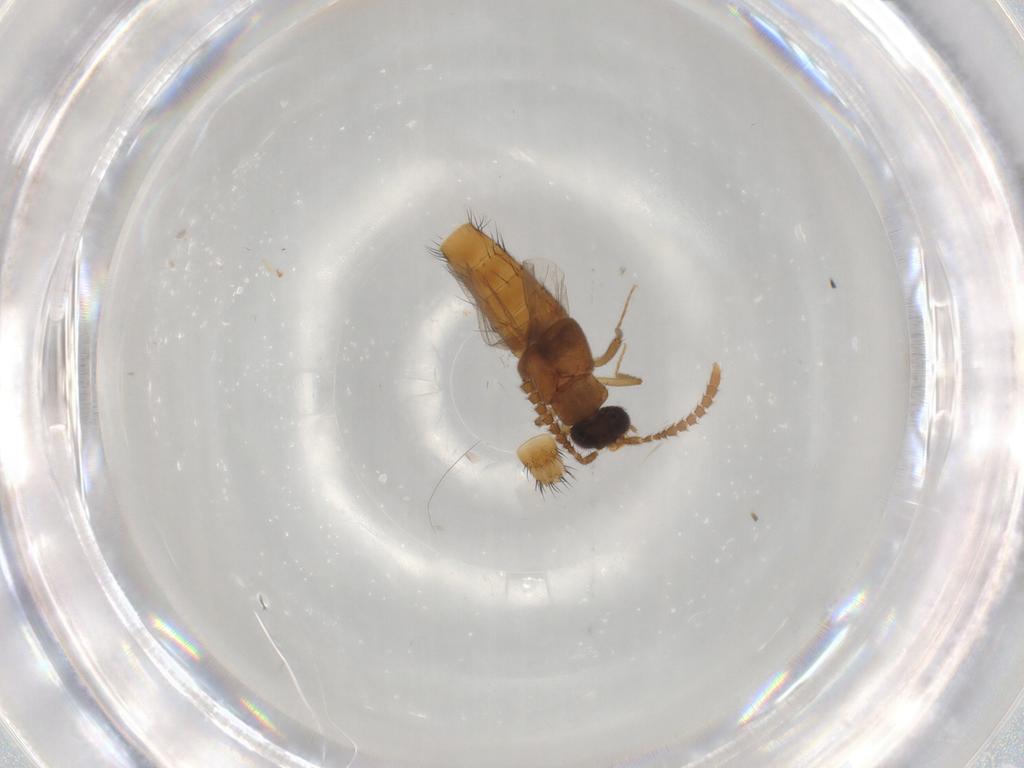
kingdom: Animalia
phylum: Arthropoda
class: Insecta
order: Coleoptera
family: Staphylinidae
